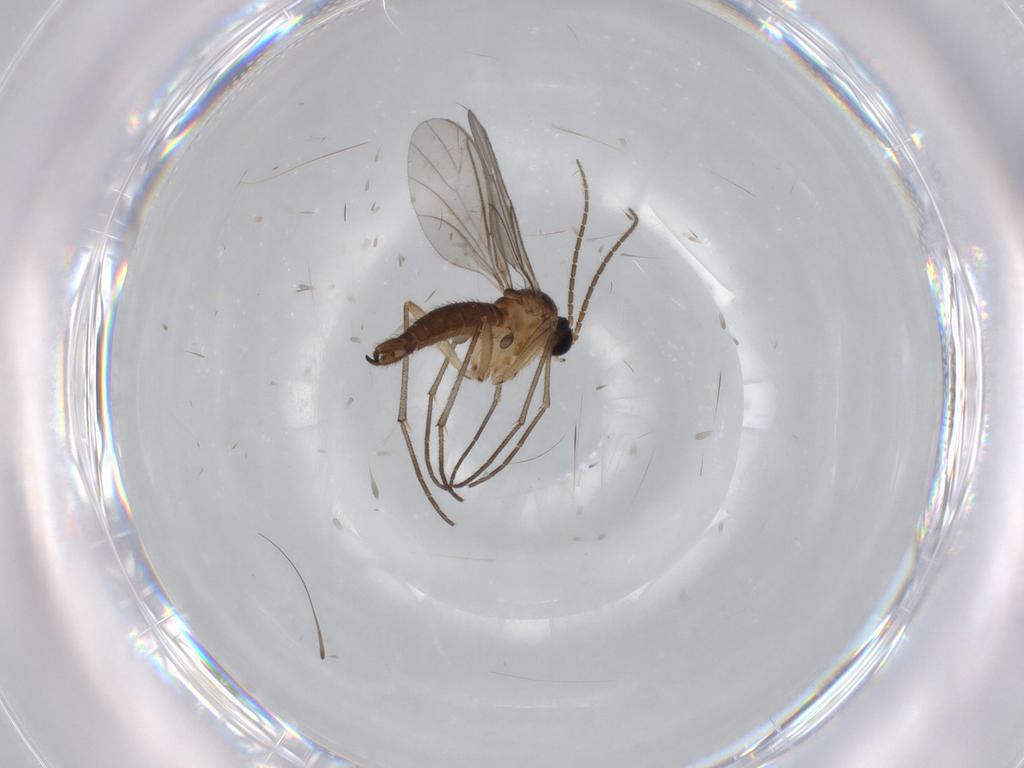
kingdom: Animalia
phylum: Arthropoda
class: Insecta
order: Diptera
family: Sciaridae
